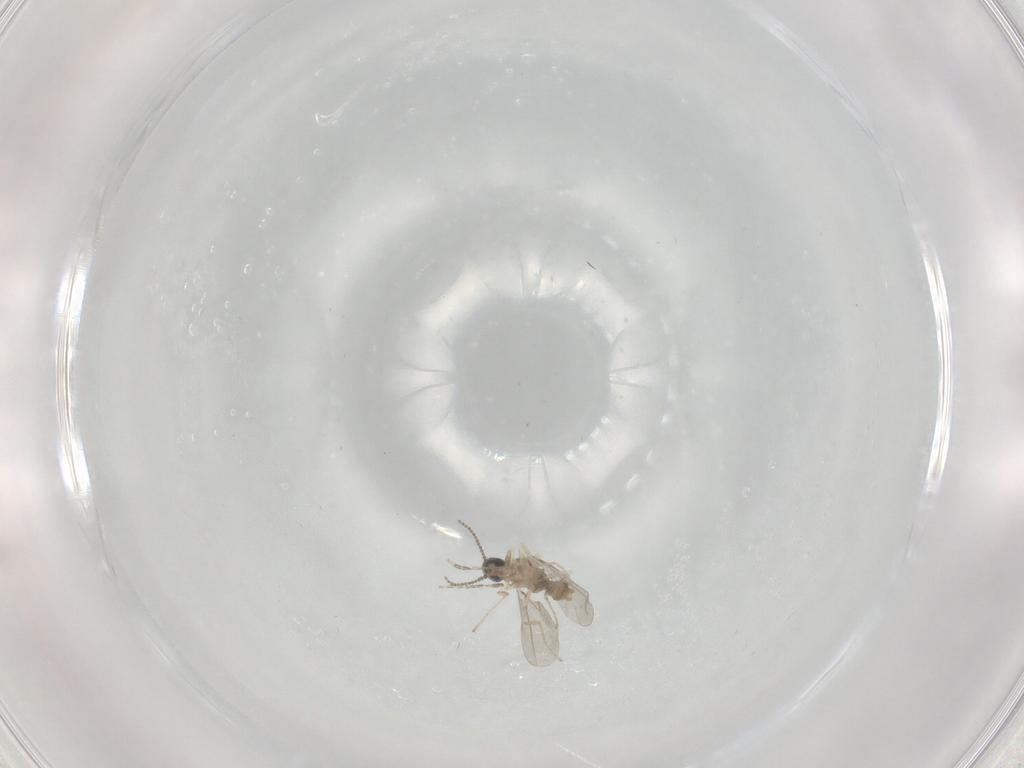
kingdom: Animalia
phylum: Arthropoda
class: Insecta
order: Diptera
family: Cecidomyiidae
